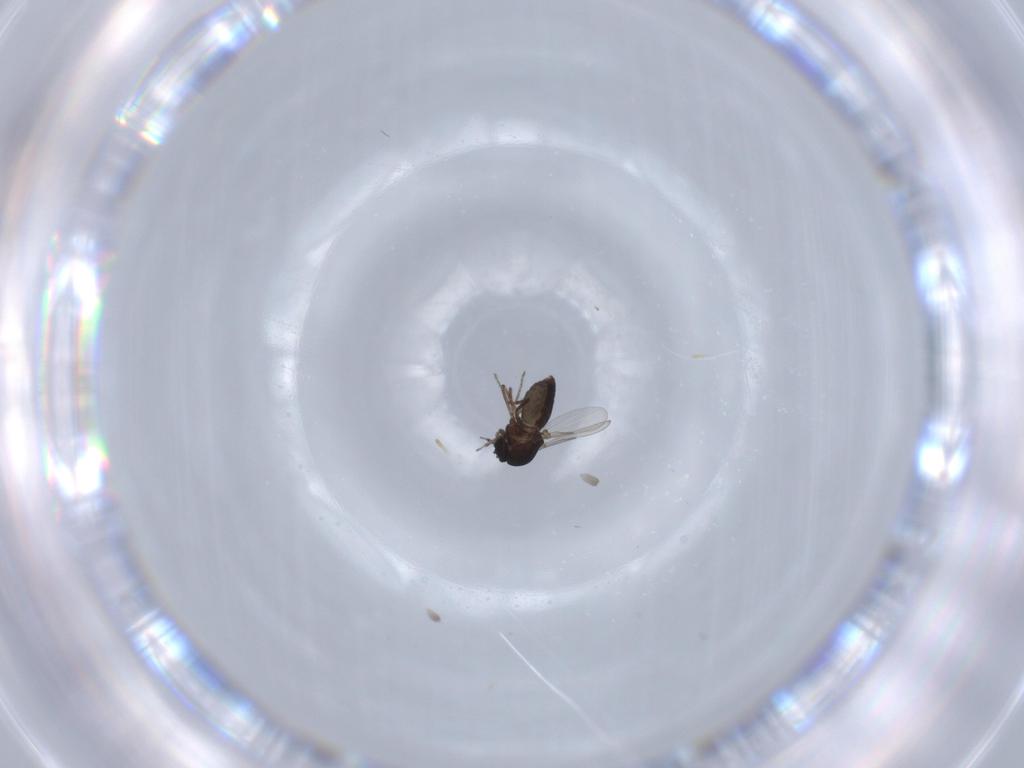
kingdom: Animalia
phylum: Arthropoda
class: Insecta
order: Diptera
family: Ceratopogonidae
